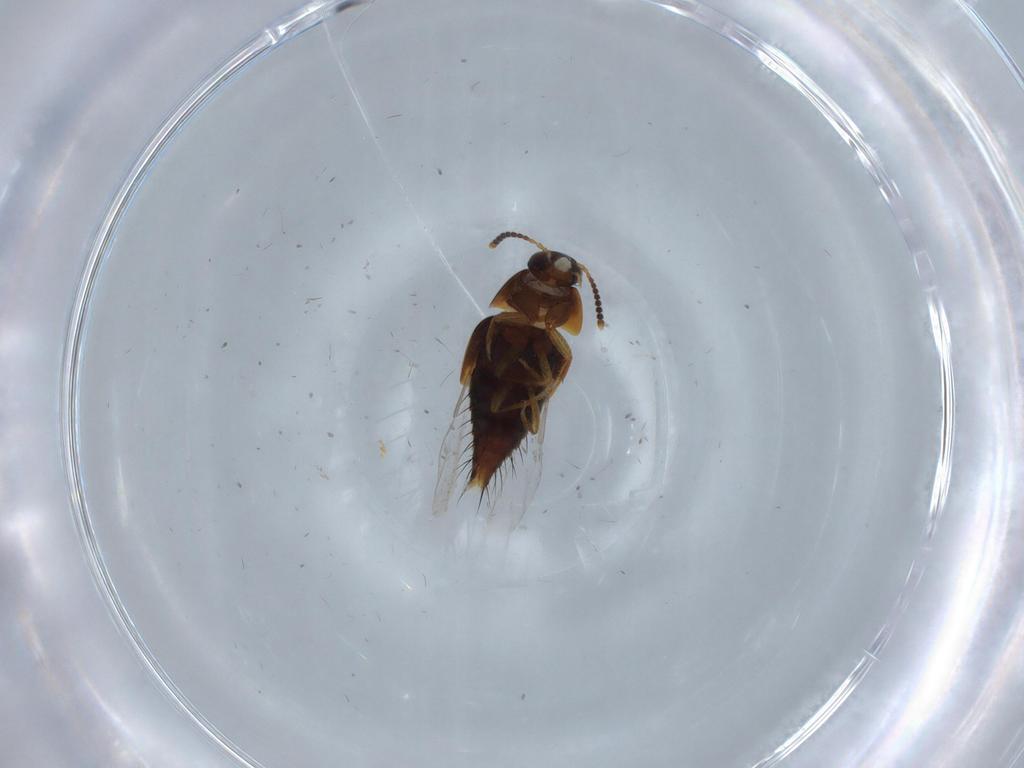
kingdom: Animalia
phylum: Arthropoda
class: Insecta
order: Coleoptera
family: Staphylinidae
